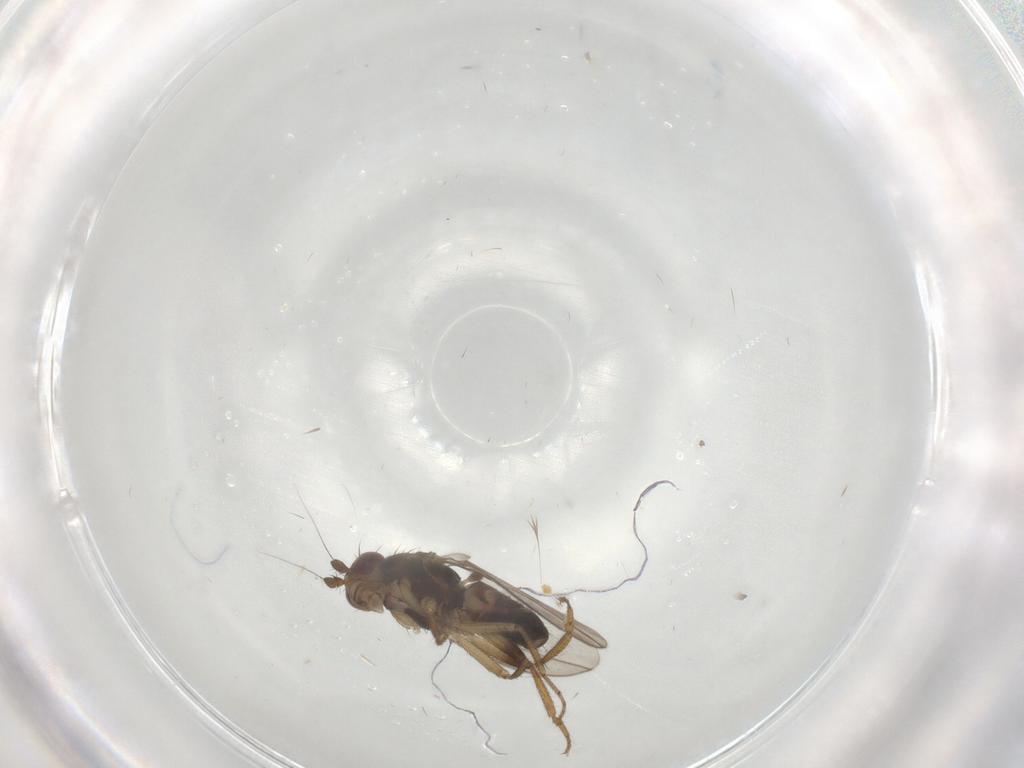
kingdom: Animalia
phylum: Arthropoda
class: Insecta
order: Diptera
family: Sphaeroceridae
